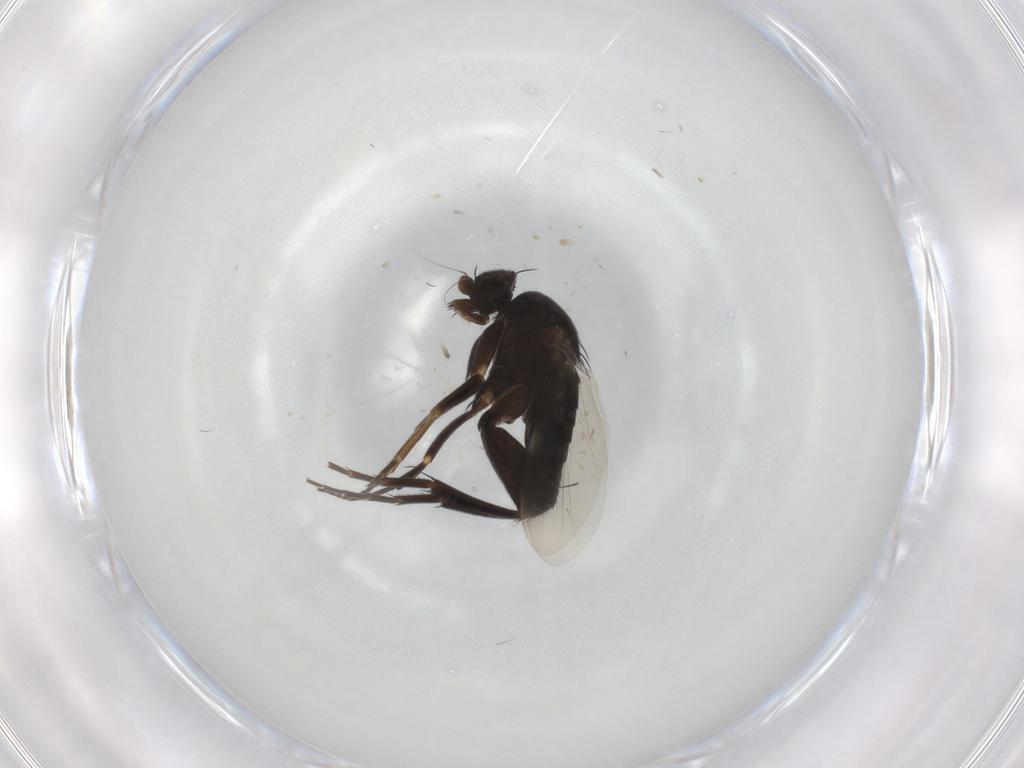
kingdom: Animalia
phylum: Arthropoda
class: Insecta
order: Diptera
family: Phoridae
